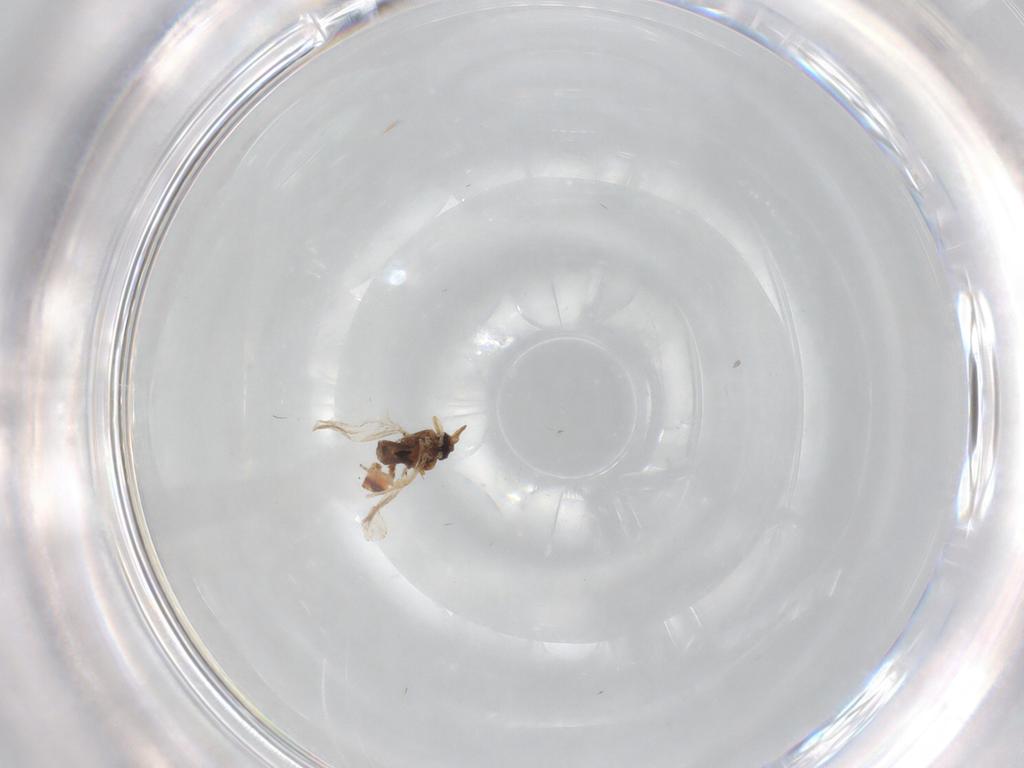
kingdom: Animalia
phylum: Arthropoda
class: Insecta
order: Diptera
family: Ceratopogonidae
